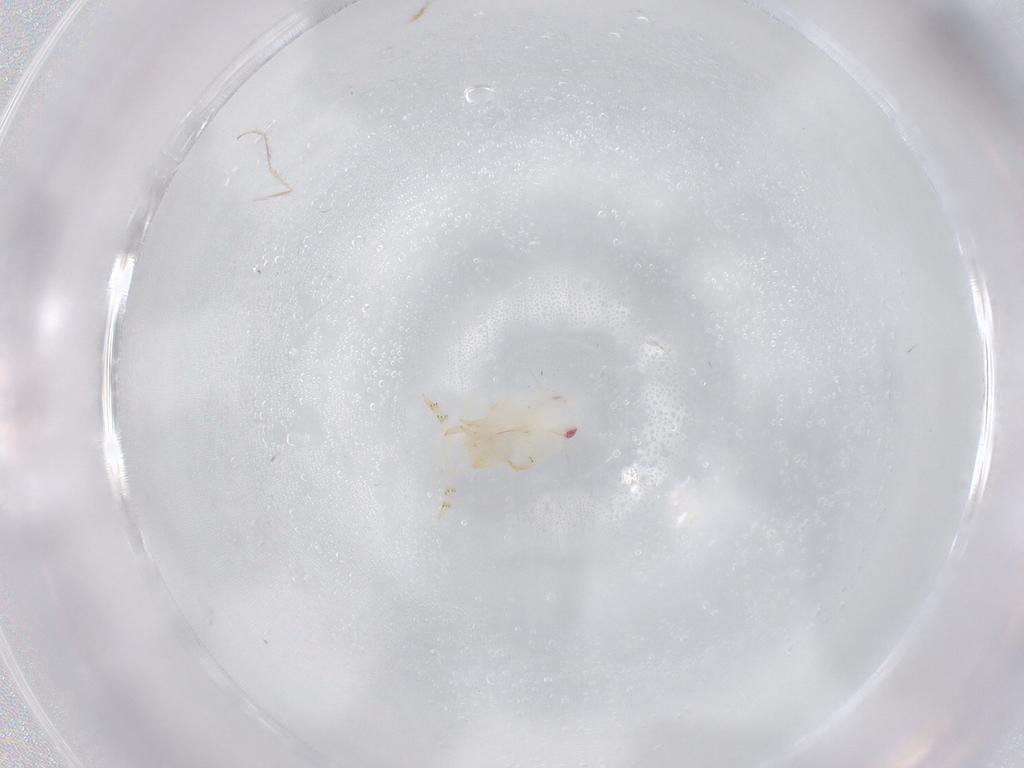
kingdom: Animalia
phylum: Arthropoda
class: Insecta
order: Hemiptera
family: Flatidae
